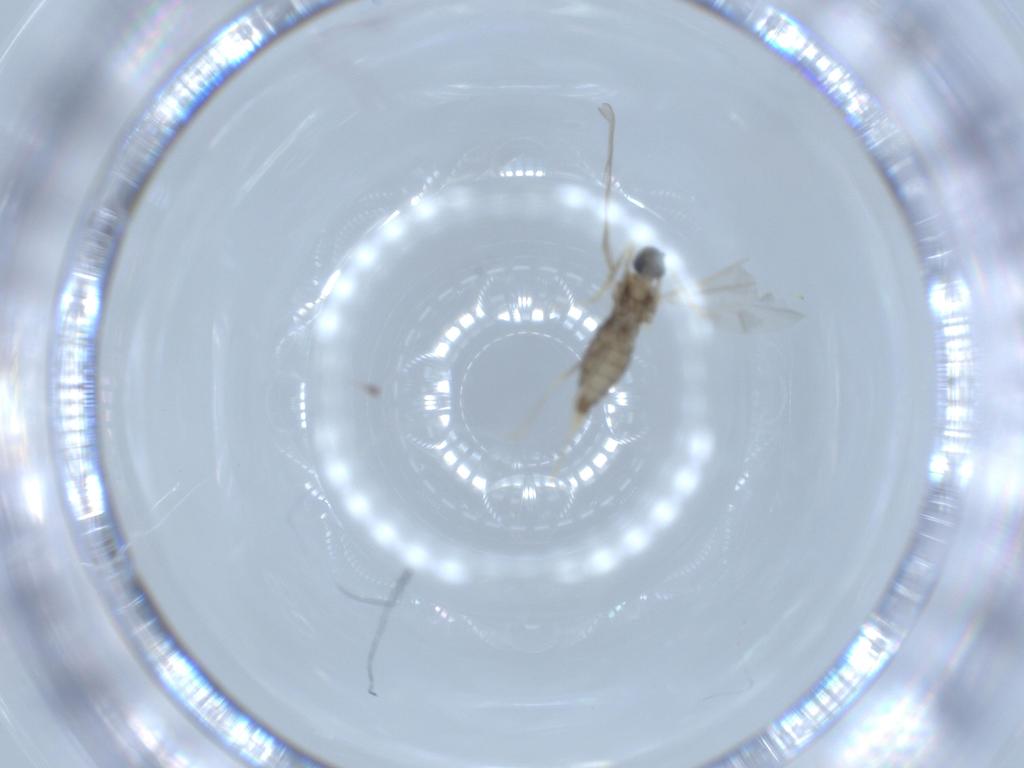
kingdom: Animalia
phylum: Arthropoda
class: Insecta
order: Diptera
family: Cecidomyiidae
